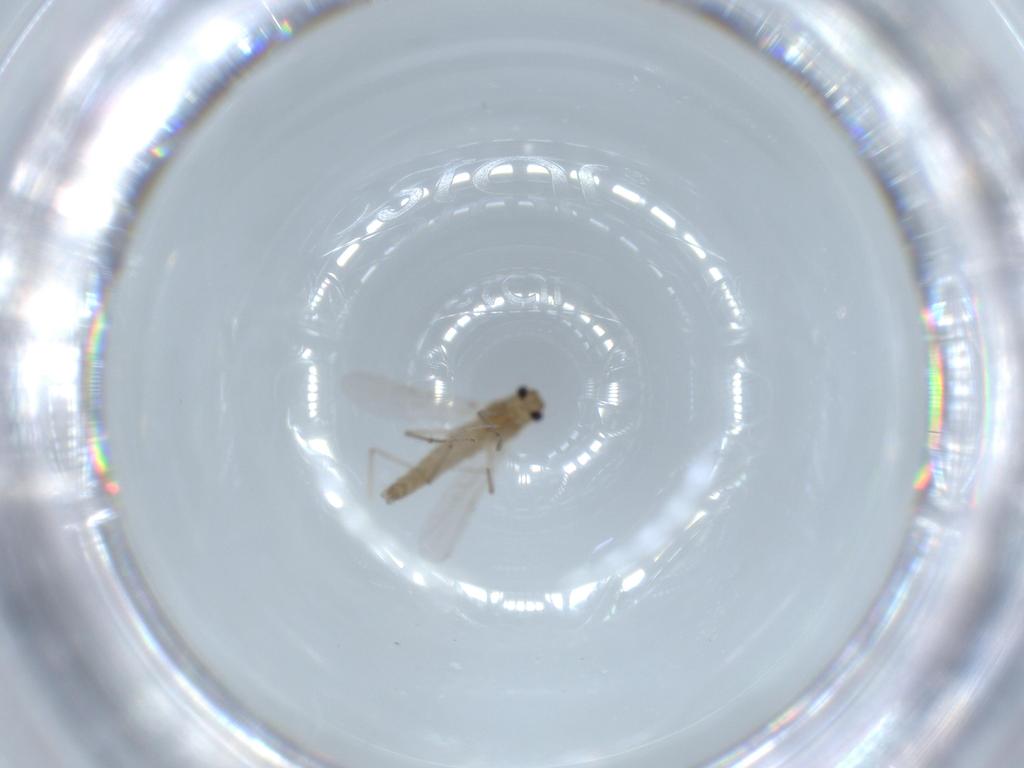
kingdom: Animalia
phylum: Arthropoda
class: Insecta
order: Diptera
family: Chironomidae
